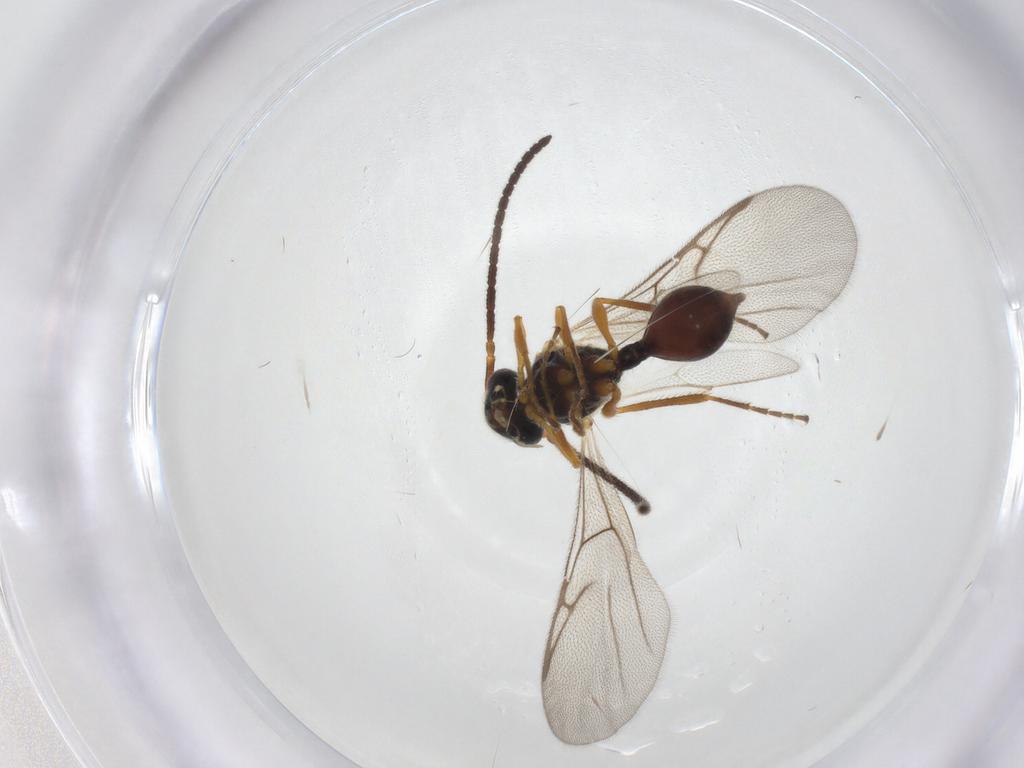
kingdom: Animalia
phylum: Arthropoda
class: Insecta
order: Hymenoptera
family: Diapriidae
